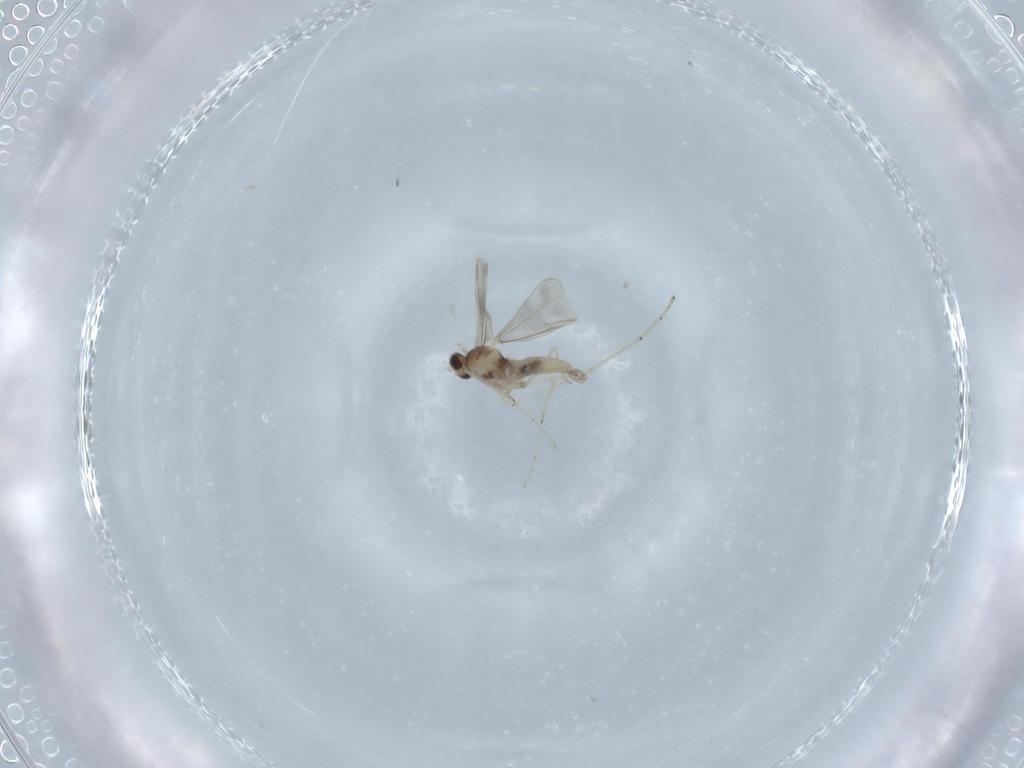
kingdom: Animalia
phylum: Arthropoda
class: Insecta
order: Diptera
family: Cecidomyiidae
